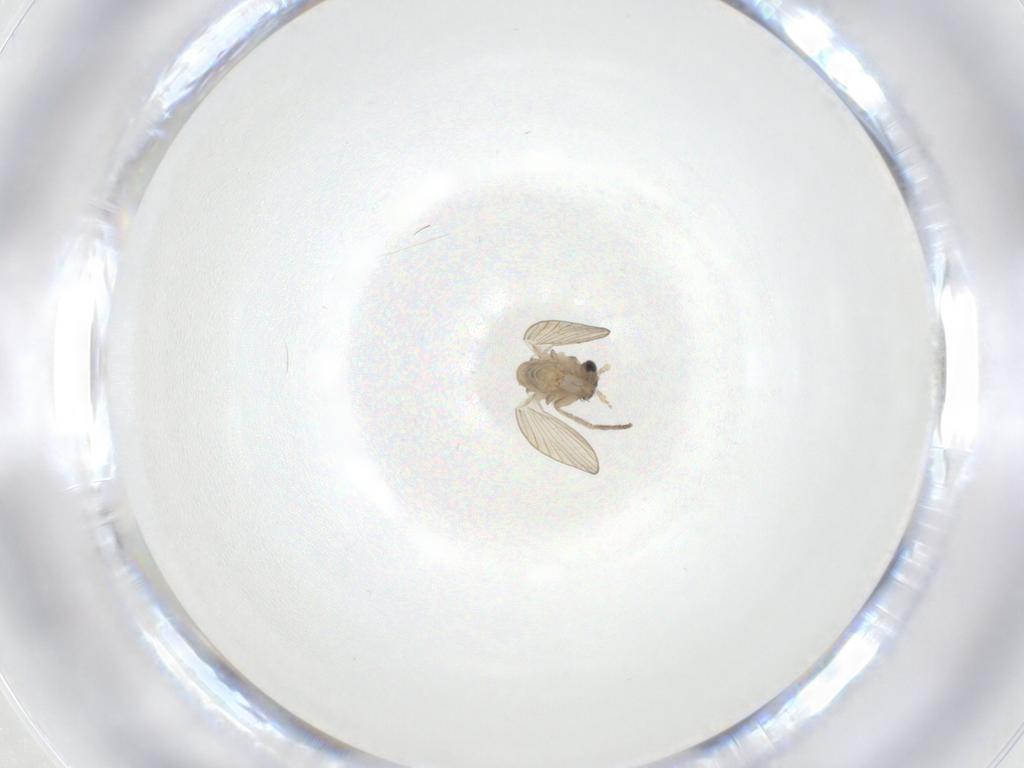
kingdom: Animalia
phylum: Arthropoda
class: Insecta
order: Diptera
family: Psychodidae
